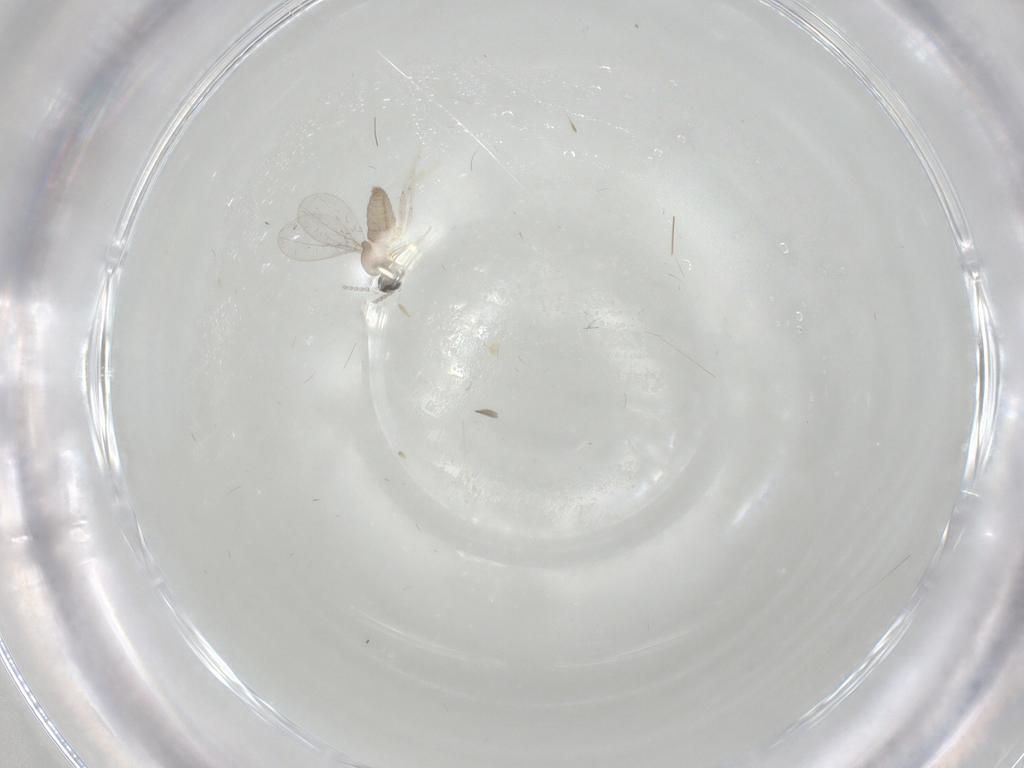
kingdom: Animalia
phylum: Arthropoda
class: Insecta
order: Diptera
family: Cecidomyiidae
